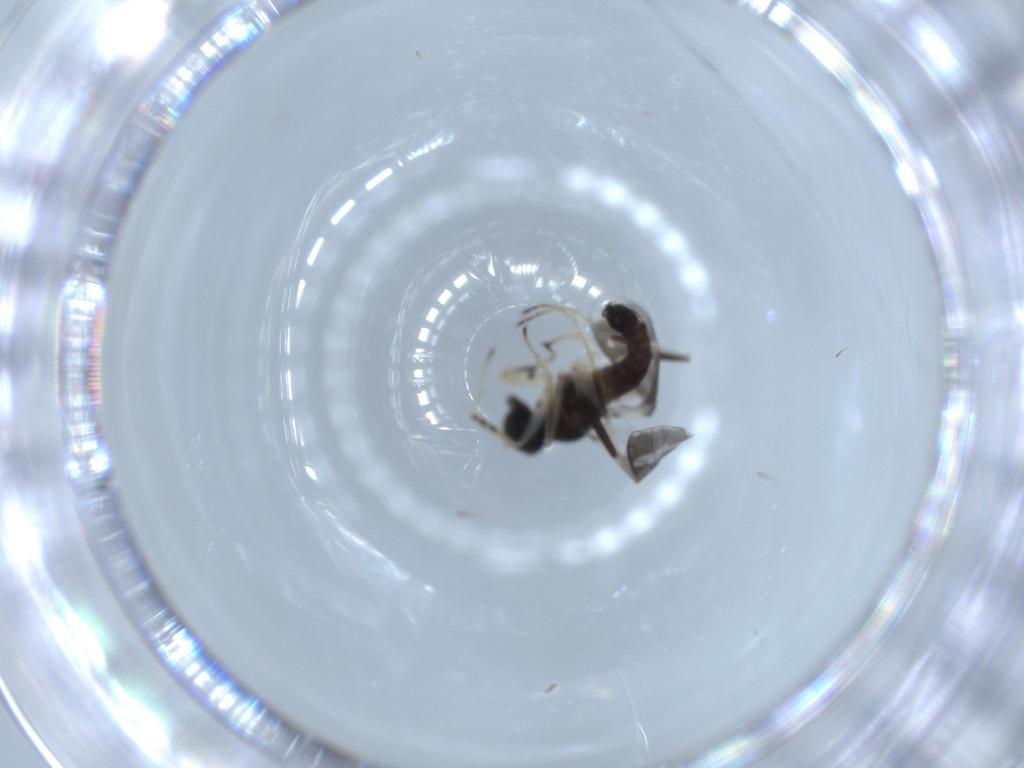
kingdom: Animalia
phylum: Arthropoda
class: Insecta
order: Diptera
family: Hybotidae
